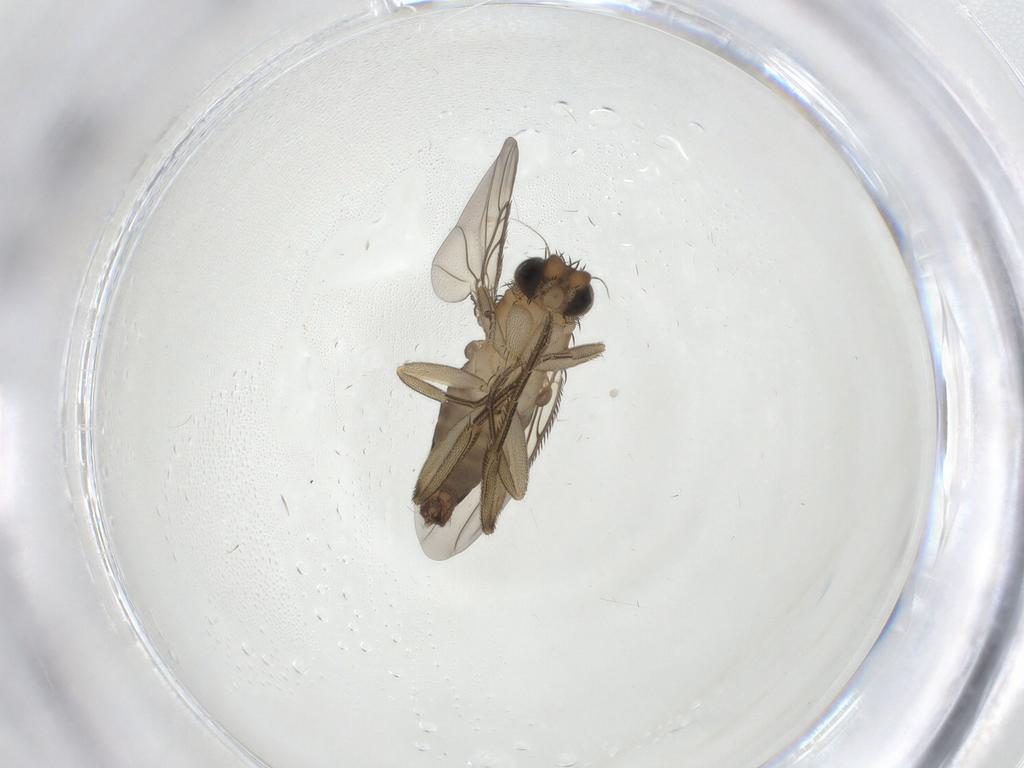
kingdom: Animalia
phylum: Arthropoda
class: Insecta
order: Diptera
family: Phoridae
